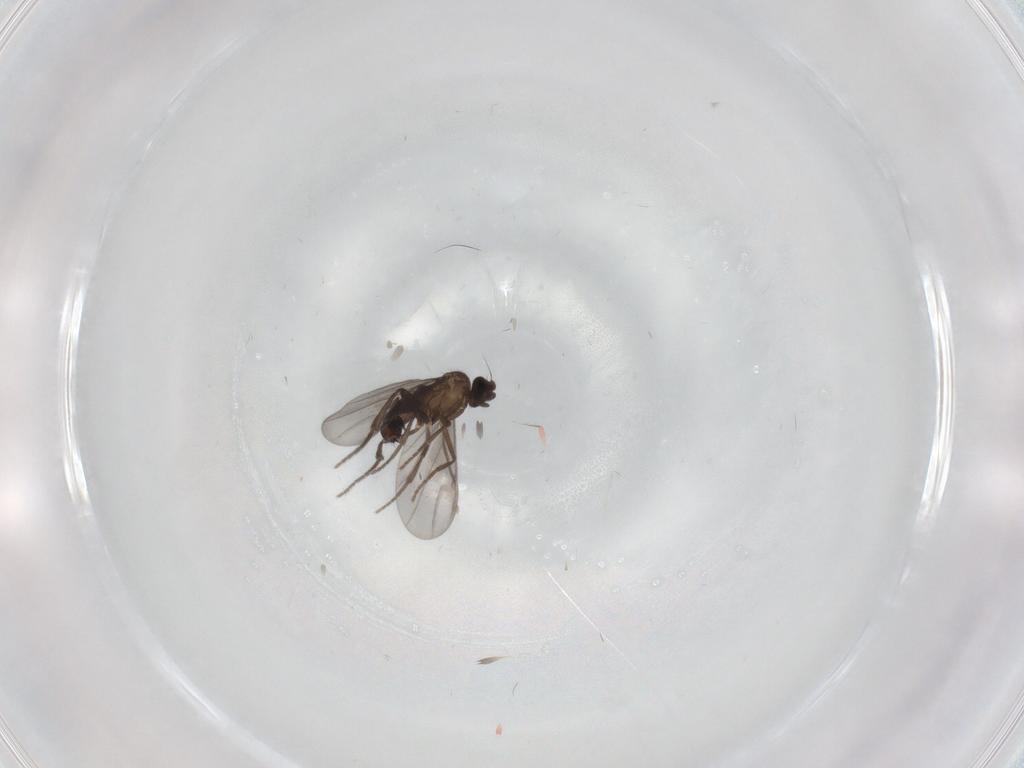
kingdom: Animalia
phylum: Arthropoda
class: Insecta
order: Diptera
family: Phoridae
